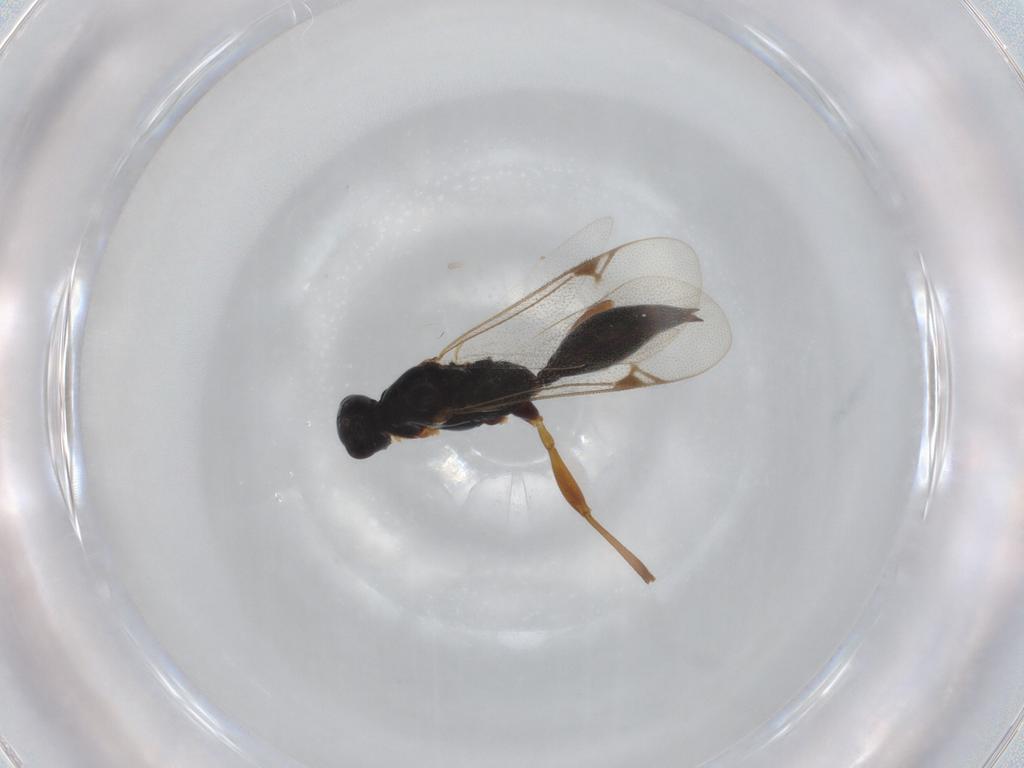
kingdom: Animalia
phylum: Arthropoda
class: Insecta
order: Hymenoptera
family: Proctotrupidae
